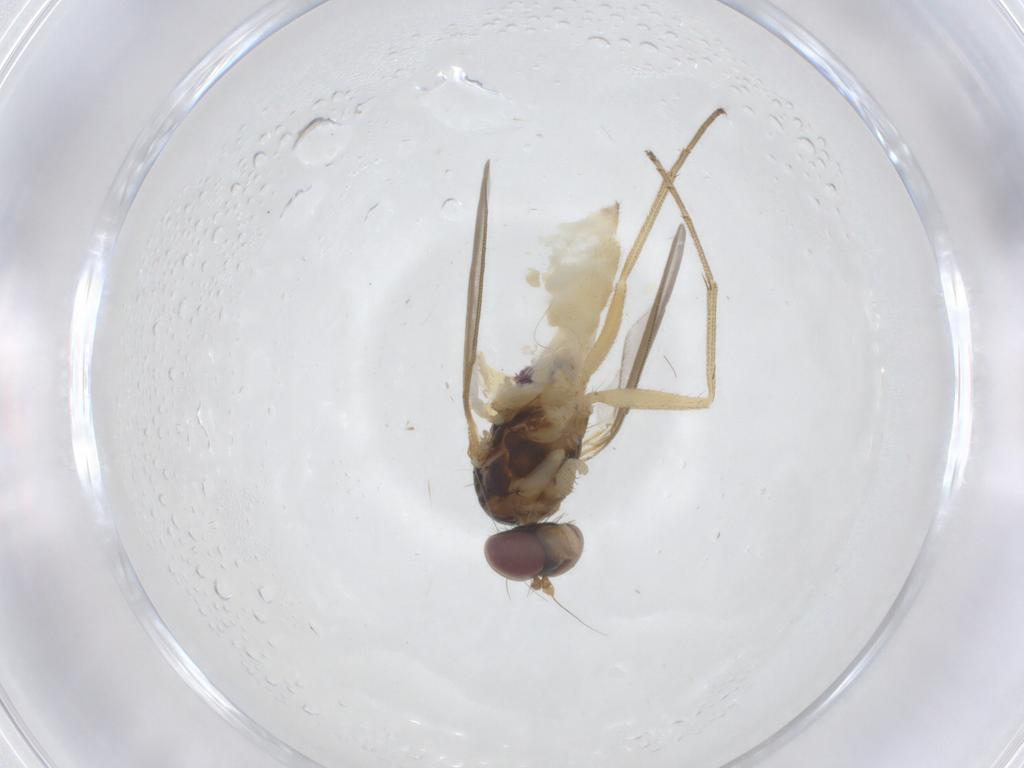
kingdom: Animalia
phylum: Arthropoda
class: Insecta
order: Diptera
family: Dolichopodidae
